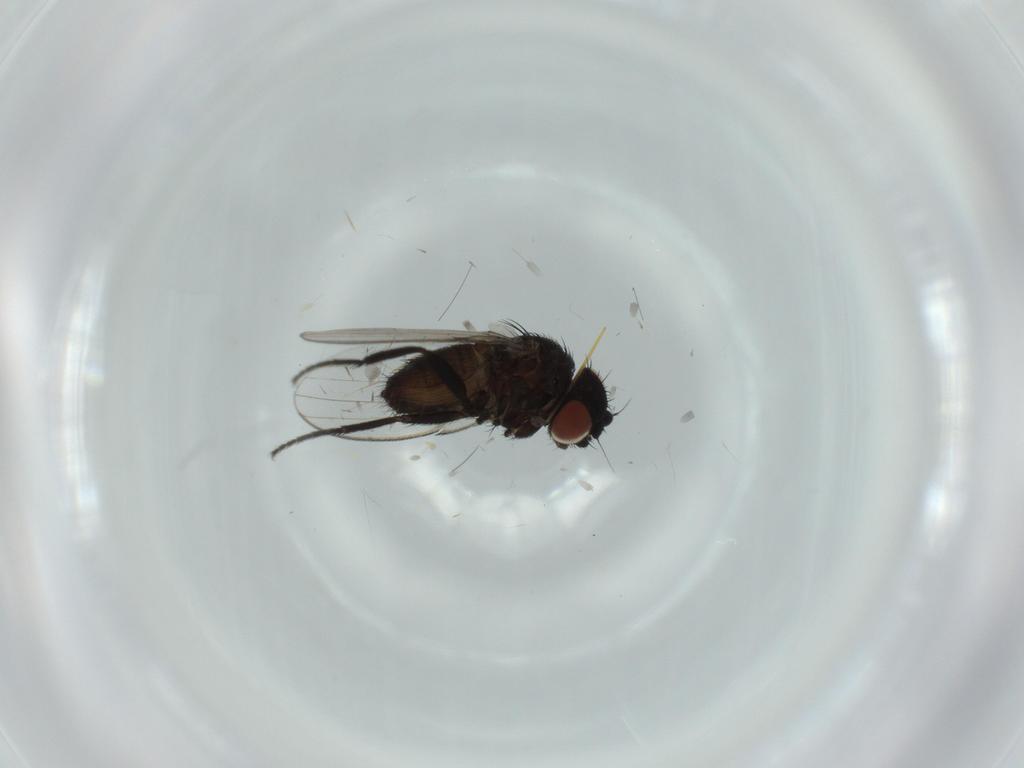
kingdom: Animalia
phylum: Arthropoda
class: Insecta
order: Diptera
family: Milichiidae
